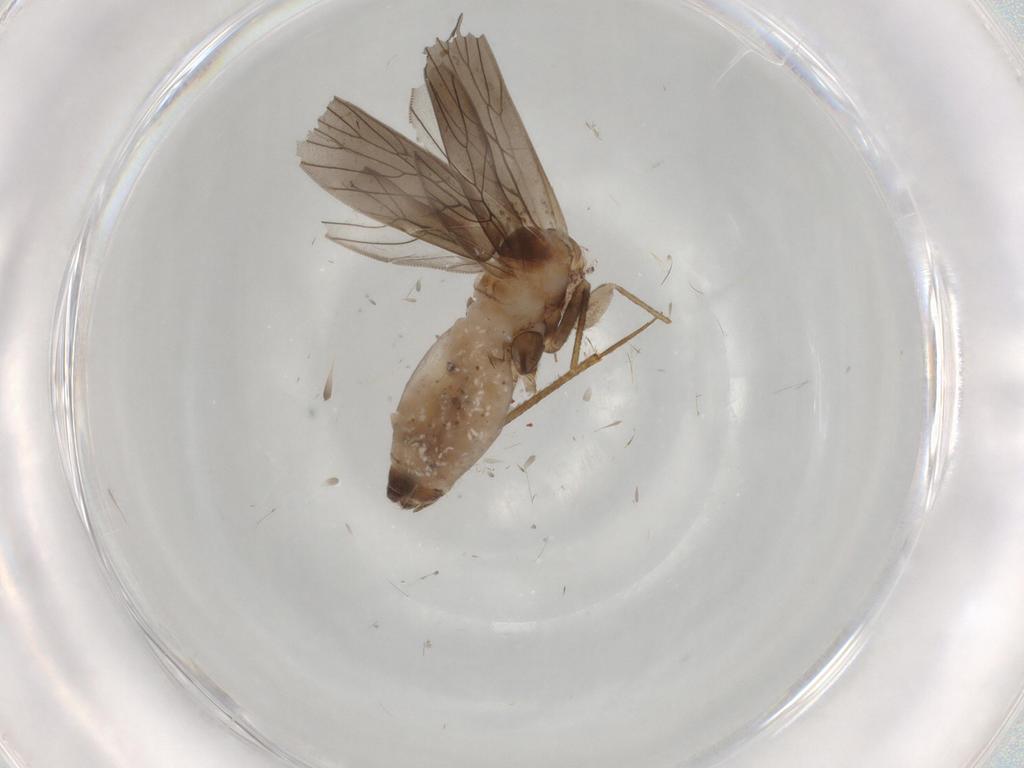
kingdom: Animalia
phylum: Arthropoda
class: Insecta
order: Psocodea
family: Lepidopsocidae
